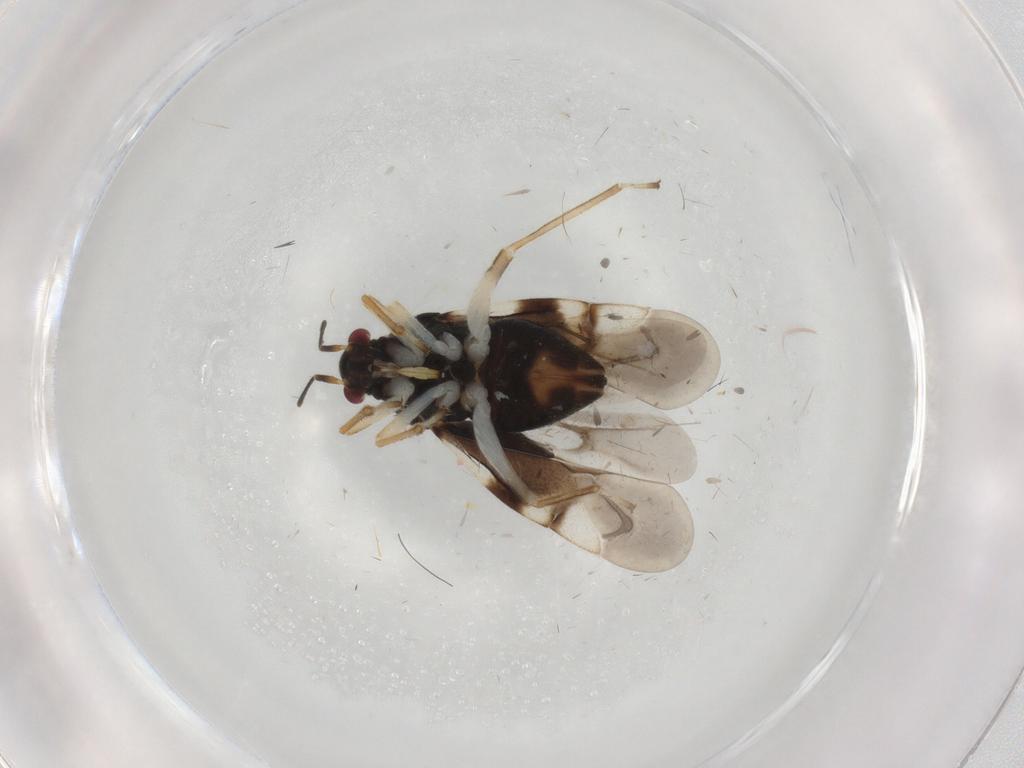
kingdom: Animalia
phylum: Arthropoda
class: Insecta
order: Hemiptera
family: Miridae
